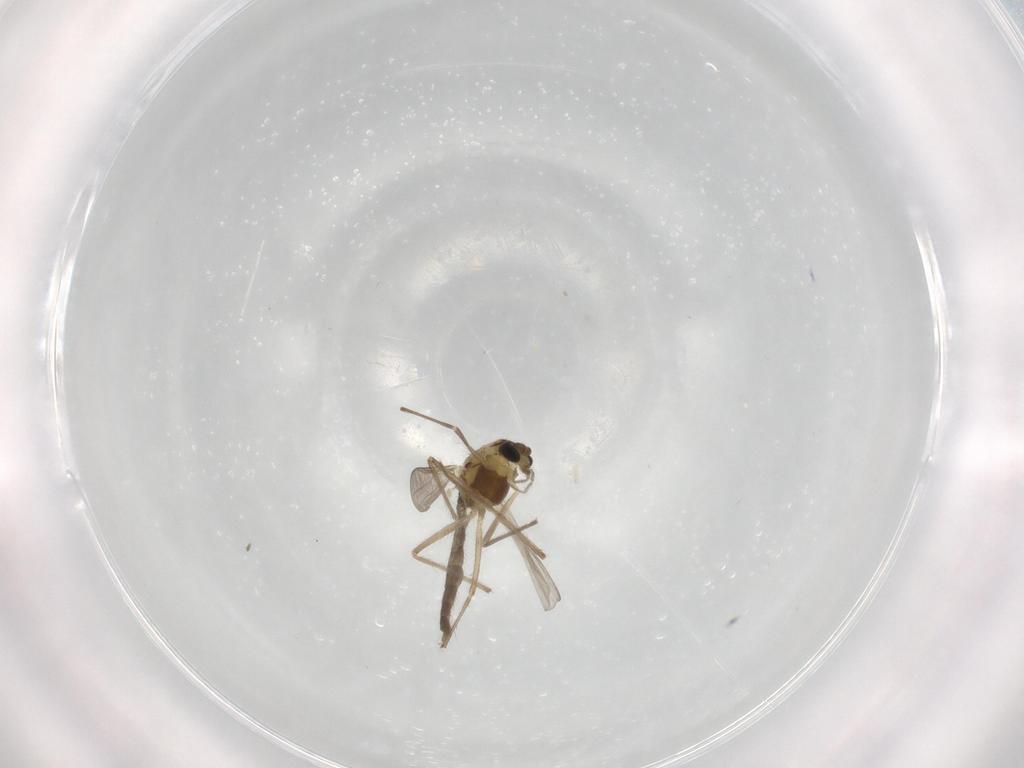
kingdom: Animalia
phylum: Arthropoda
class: Insecta
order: Diptera
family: Chironomidae
